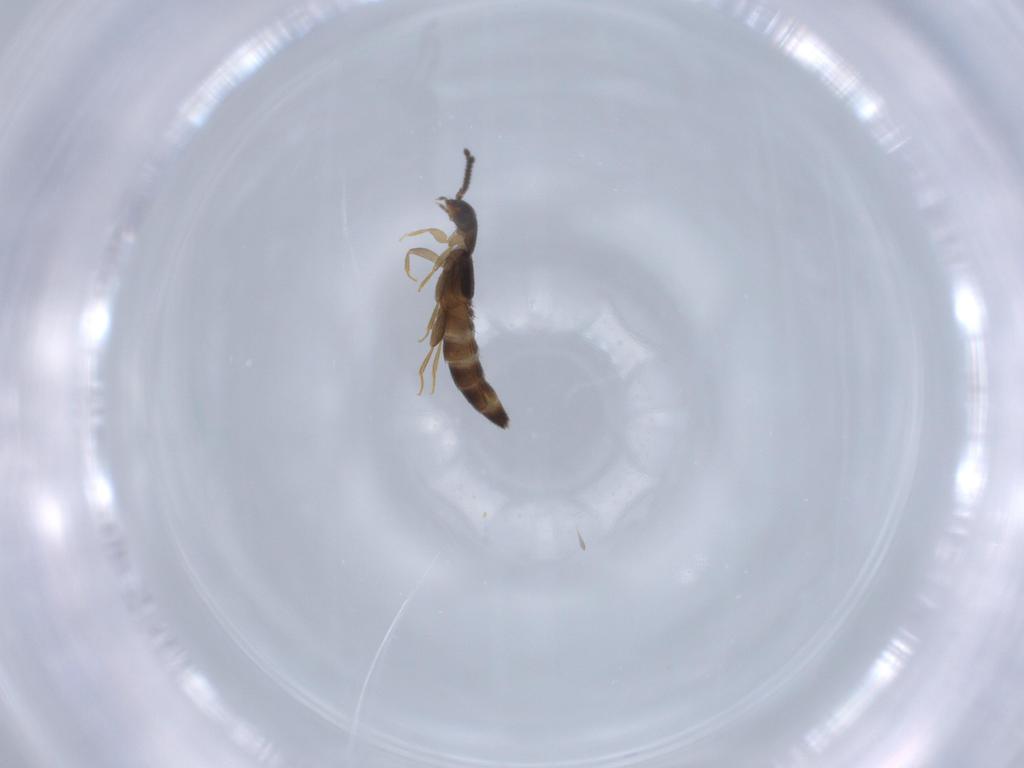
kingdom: Animalia
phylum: Arthropoda
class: Insecta
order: Coleoptera
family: Staphylinidae
